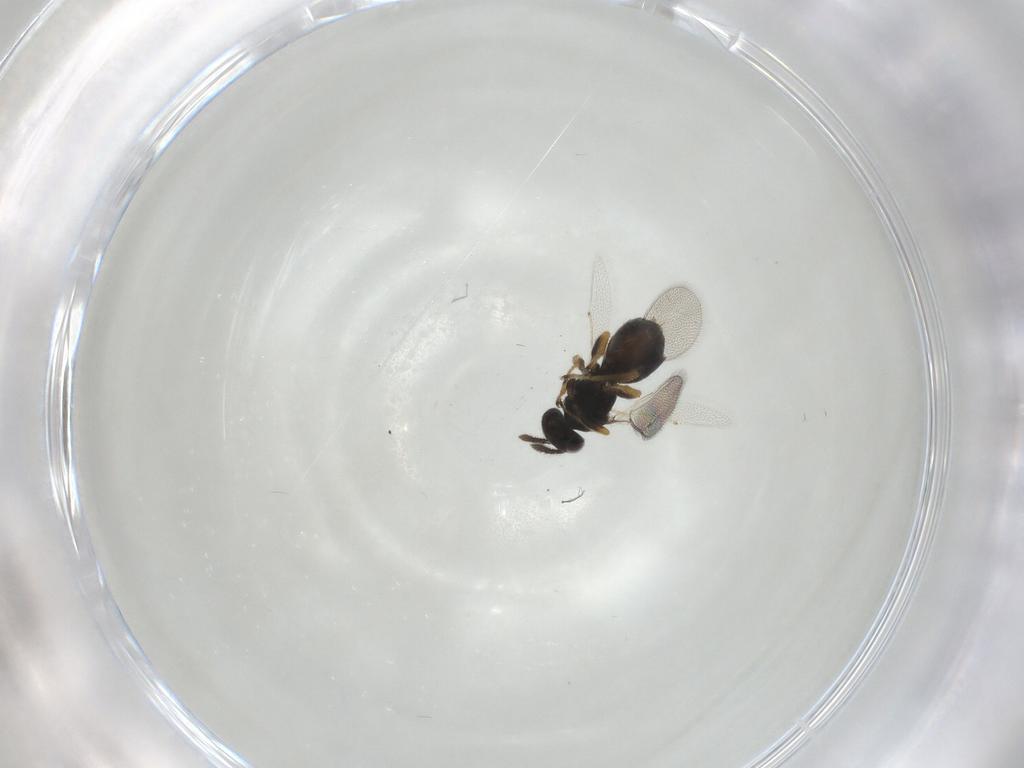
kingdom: Animalia
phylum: Arthropoda
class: Insecta
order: Hymenoptera
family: Eulophidae
